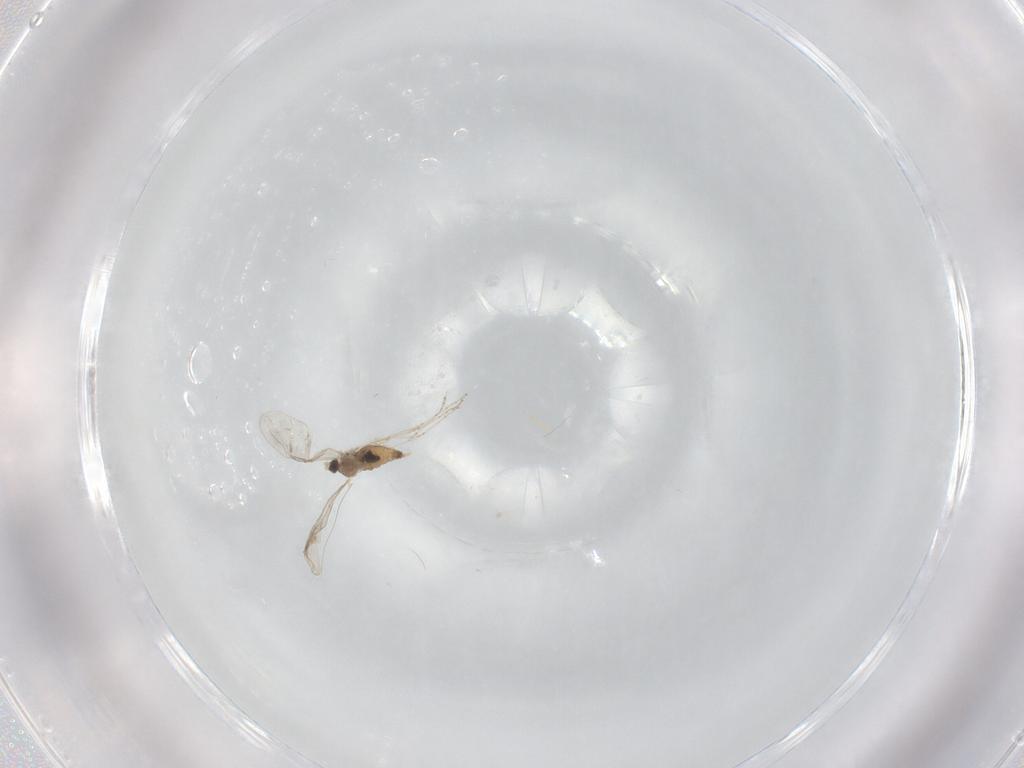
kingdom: Animalia
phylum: Arthropoda
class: Insecta
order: Diptera
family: Cecidomyiidae
